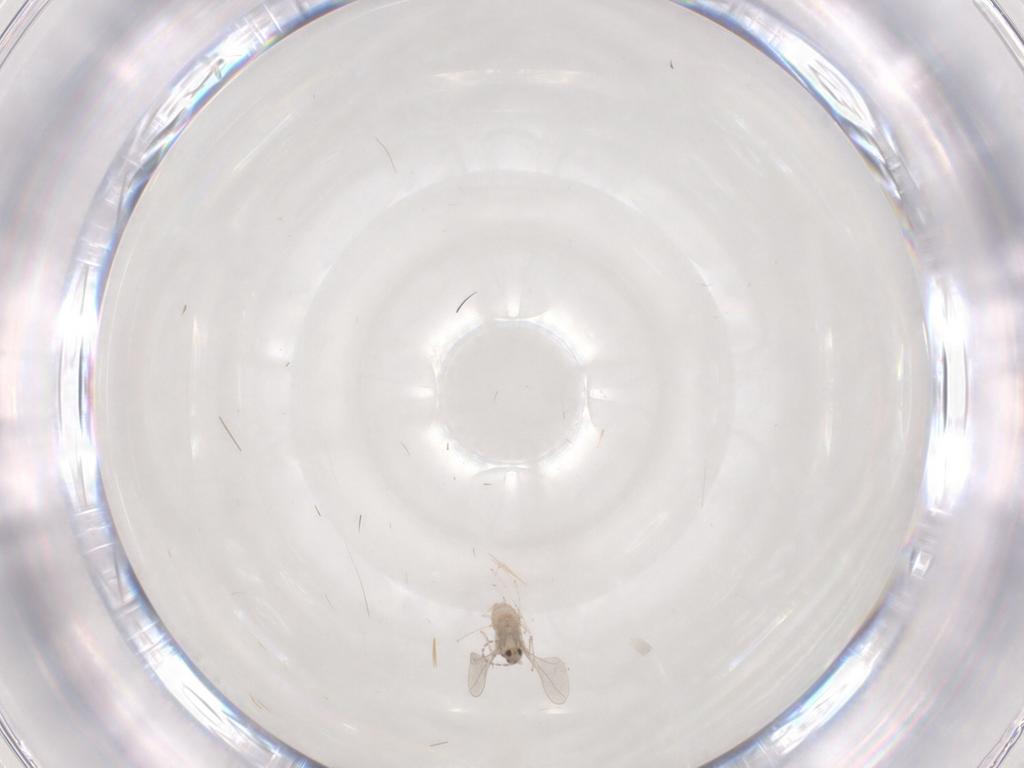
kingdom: Animalia
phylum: Arthropoda
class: Insecta
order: Diptera
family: Cecidomyiidae
